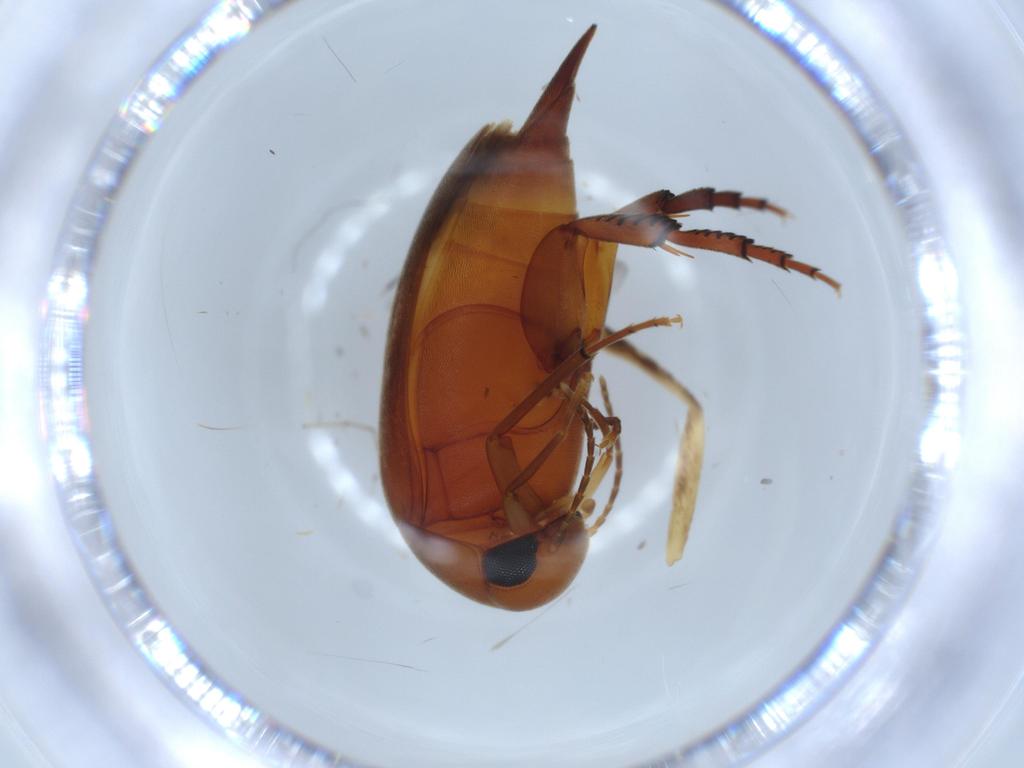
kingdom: Animalia
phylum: Arthropoda
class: Insecta
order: Coleoptera
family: Mordellidae
